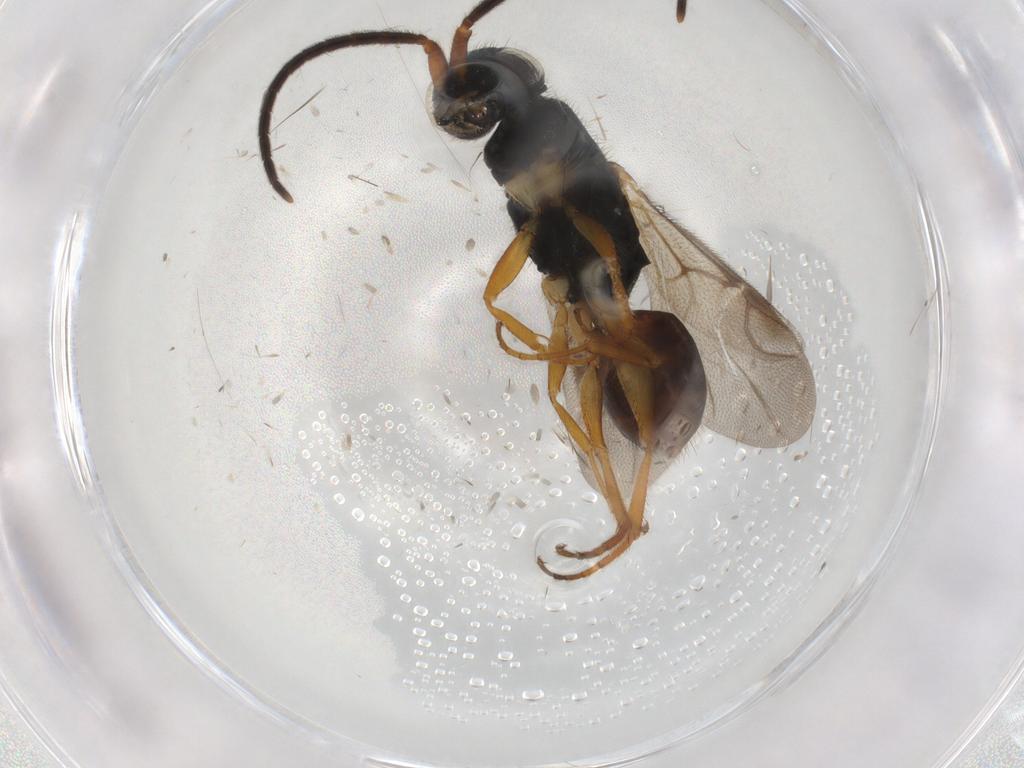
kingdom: Animalia
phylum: Arthropoda
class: Insecta
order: Hymenoptera
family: Chrysididae
